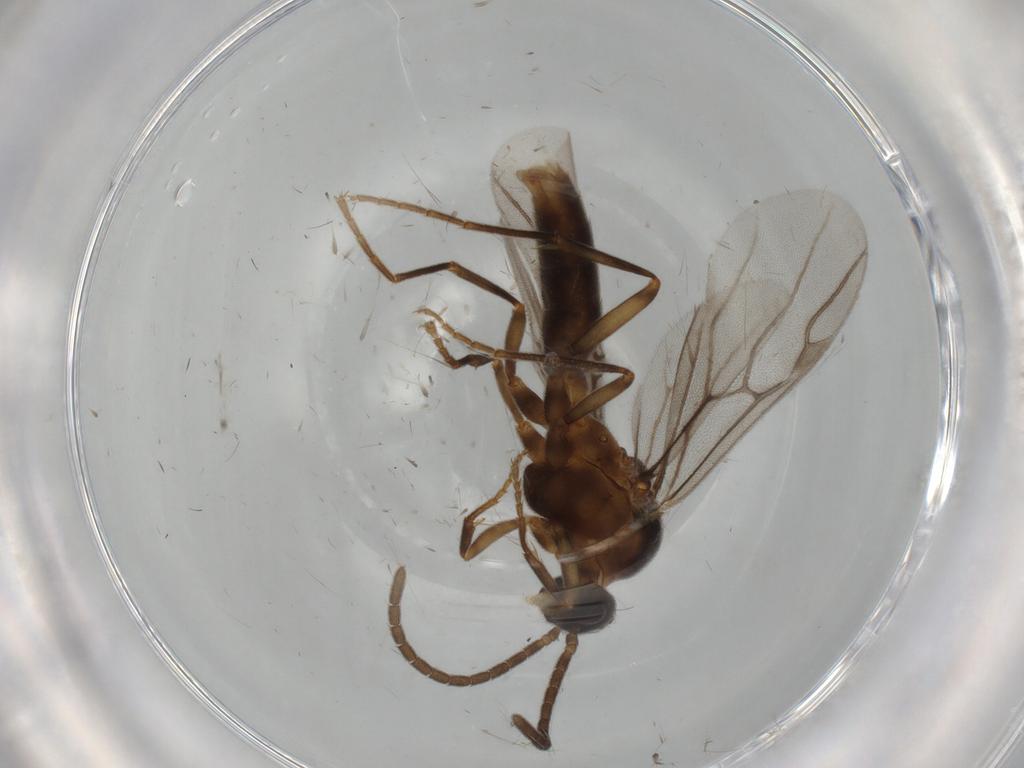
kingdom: Animalia
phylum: Arthropoda
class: Insecta
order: Hymenoptera
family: Formicidae
